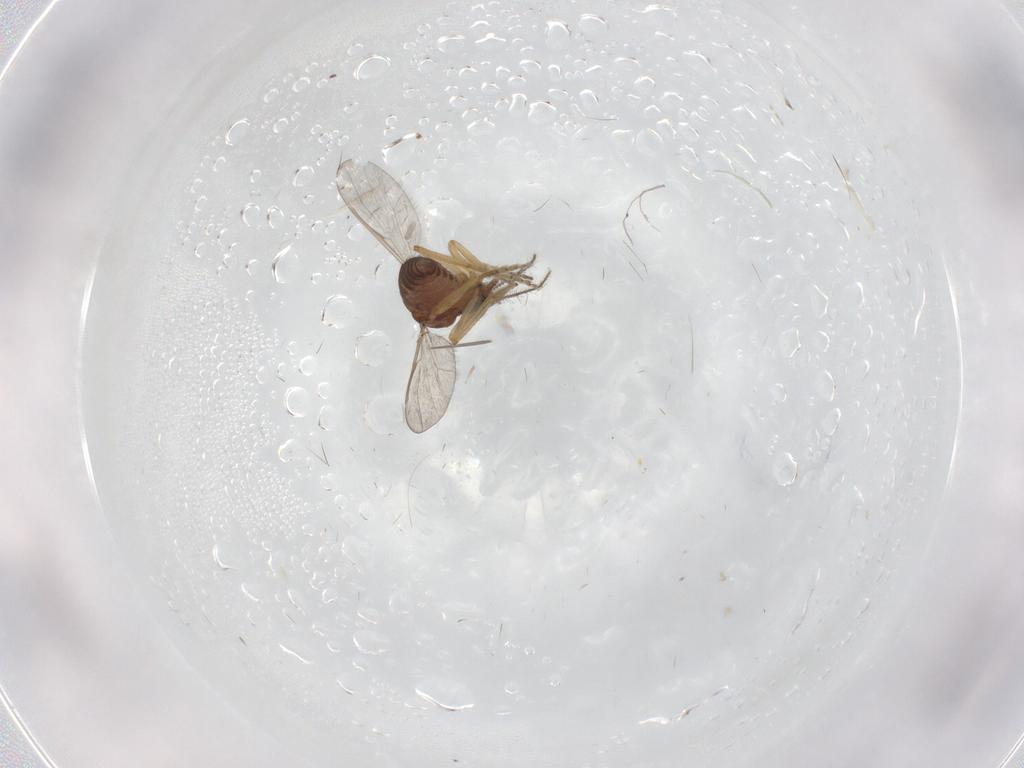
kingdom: Animalia
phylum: Arthropoda
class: Insecta
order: Diptera
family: Ceratopogonidae
